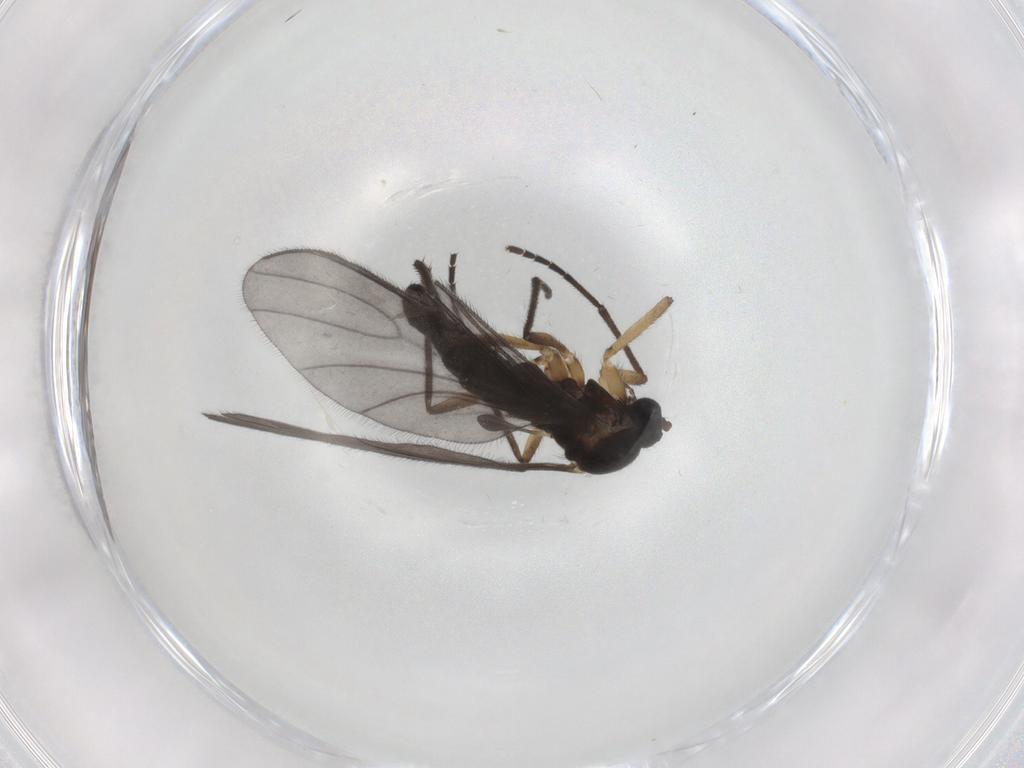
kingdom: Animalia
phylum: Arthropoda
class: Insecta
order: Diptera
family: Sciaridae
